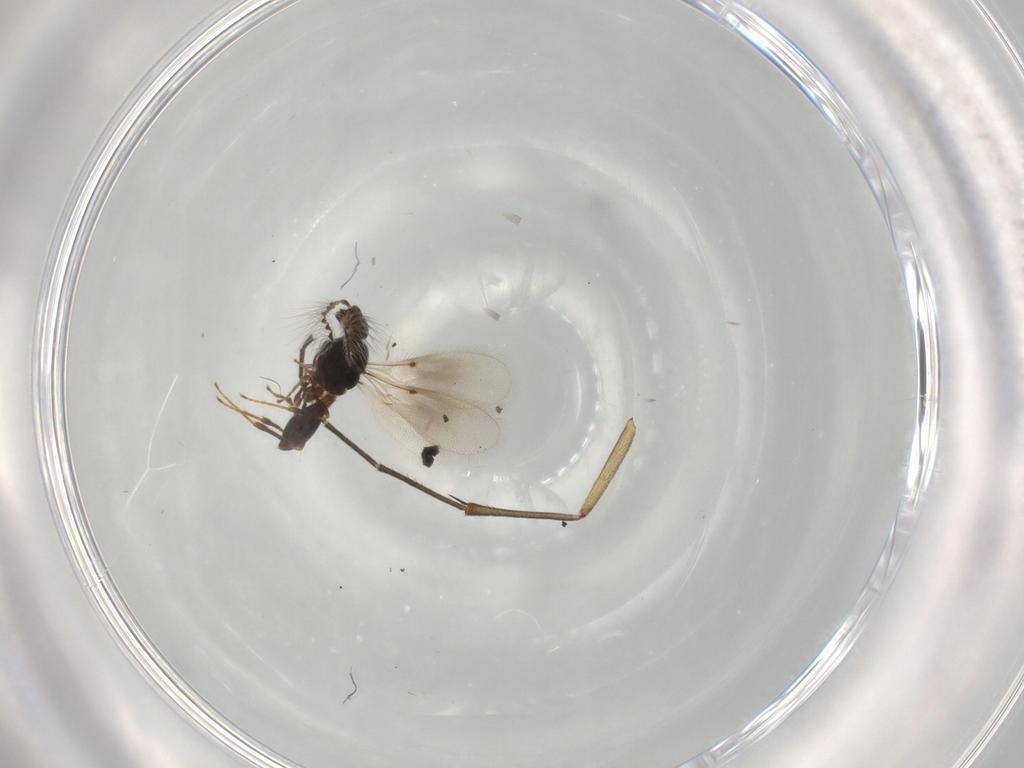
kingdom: Animalia
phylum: Arthropoda
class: Insecta
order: Hymenoptera
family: Platygastridae
